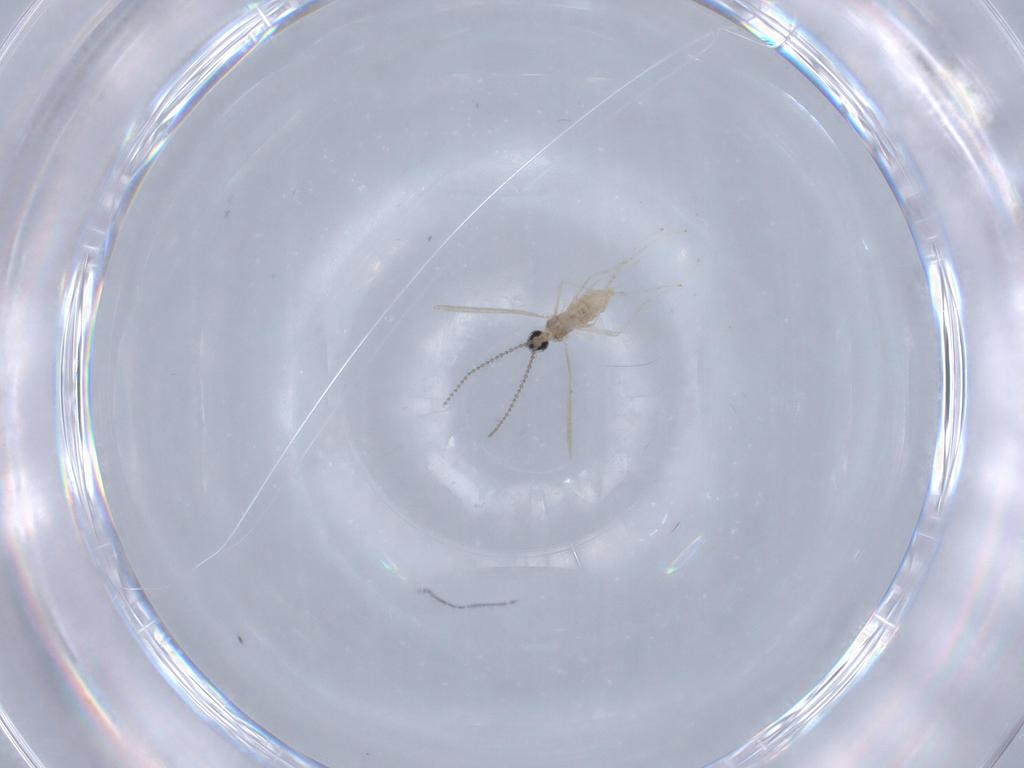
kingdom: Animalia
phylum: Arthropoda
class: Insecta
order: Diptera
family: Cecidomyiidae
